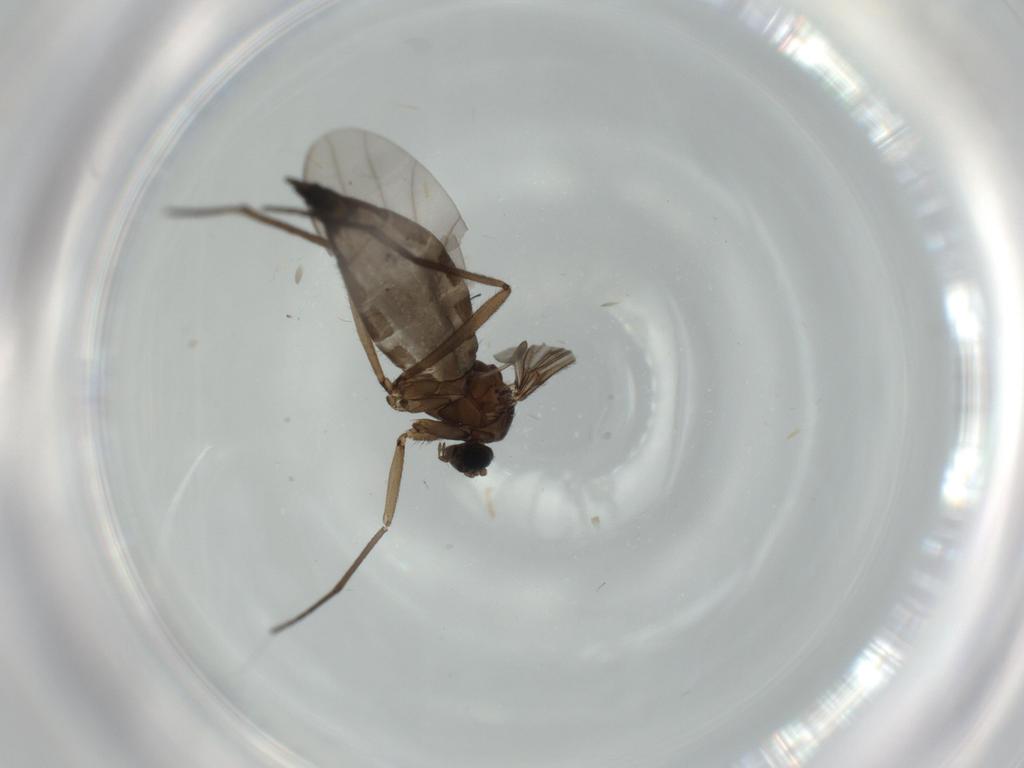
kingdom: Animalia
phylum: Arthropoda
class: Insecta
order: Diptera
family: Sciaridae
